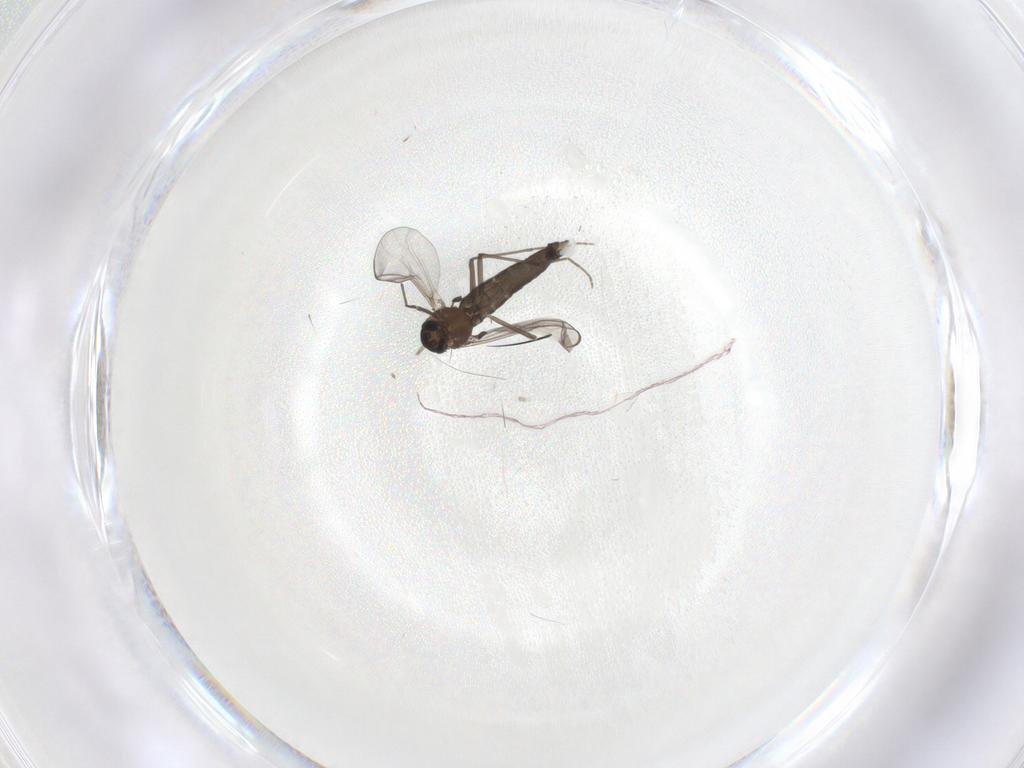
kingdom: Animalia
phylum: Arthropoda
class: Insecta
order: Diptera
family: Chironomidae
